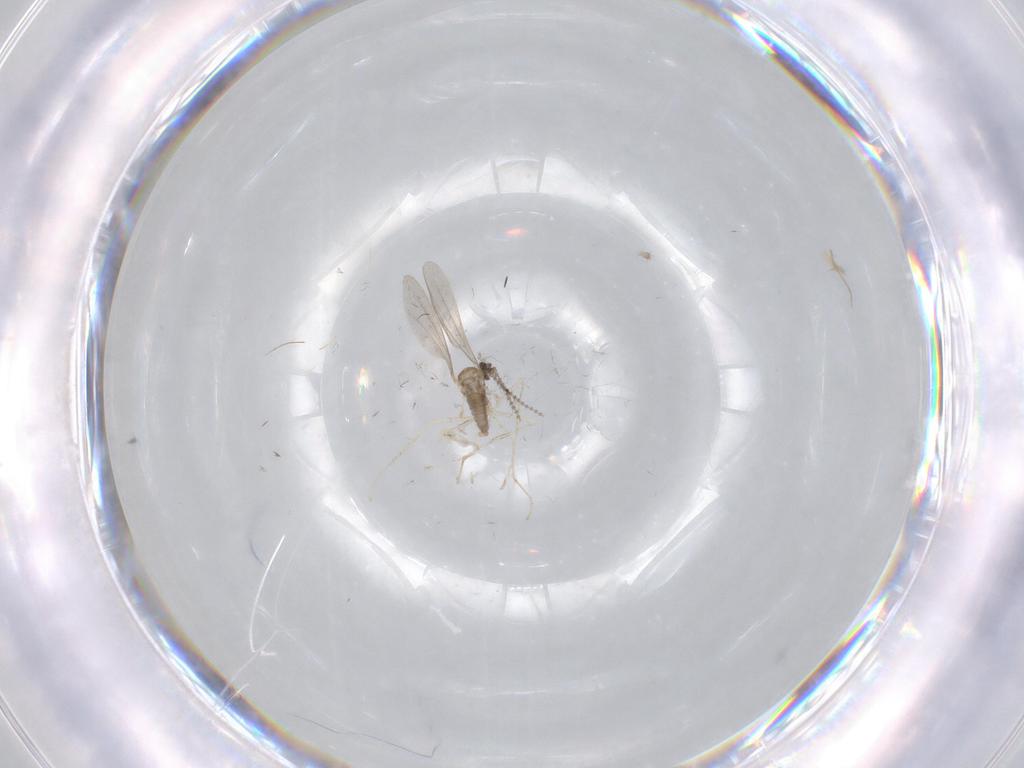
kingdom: Animalia
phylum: Arthropoda
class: Insecta
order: Diptera
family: Cecidomyiidae
